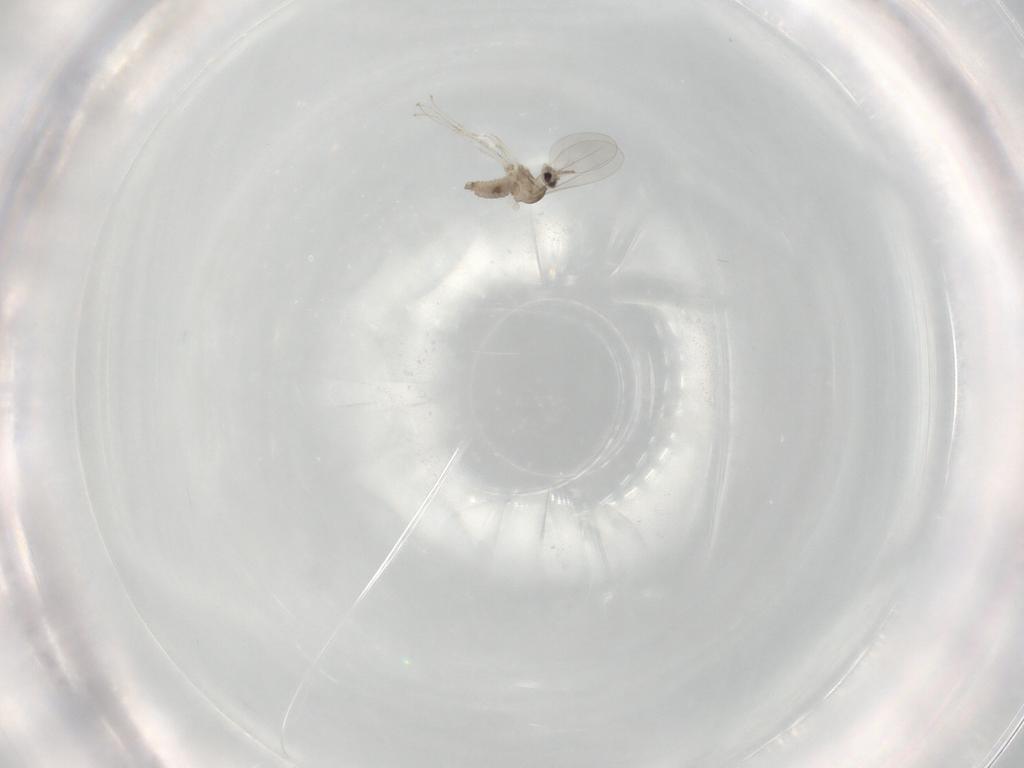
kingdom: Animalia
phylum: Arthropoda
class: Insecta
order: Diptera
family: Cecidomyiidae
